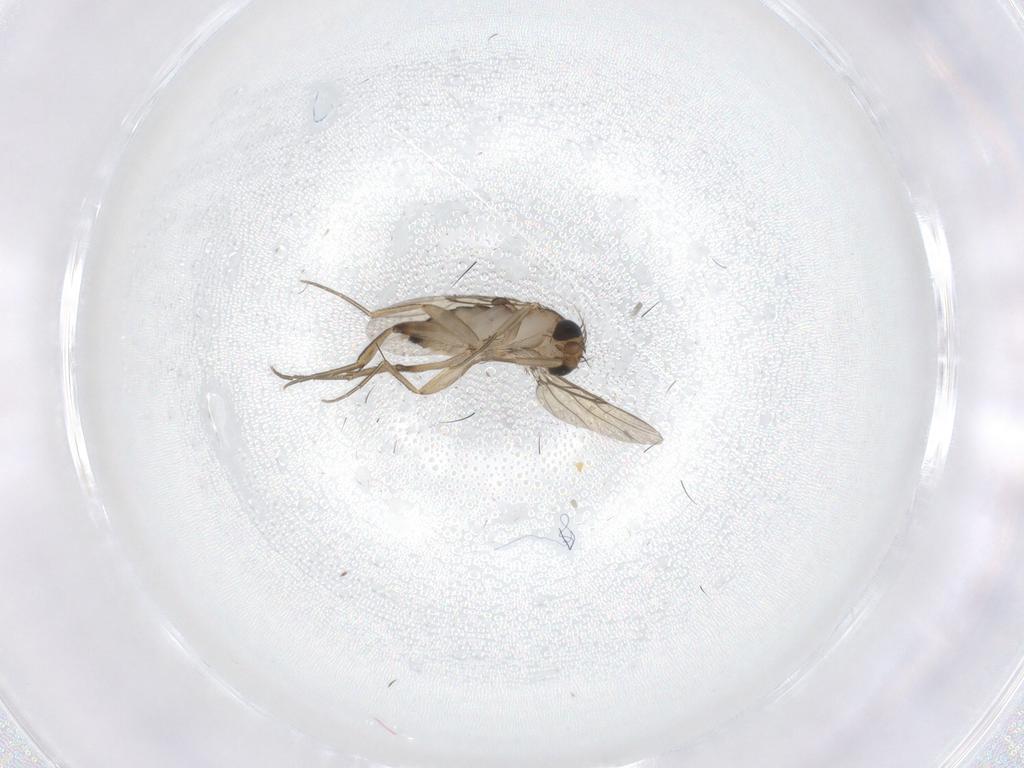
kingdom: Animalia
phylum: Arthropoda
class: Insecta
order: Diptera
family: Phoridae
